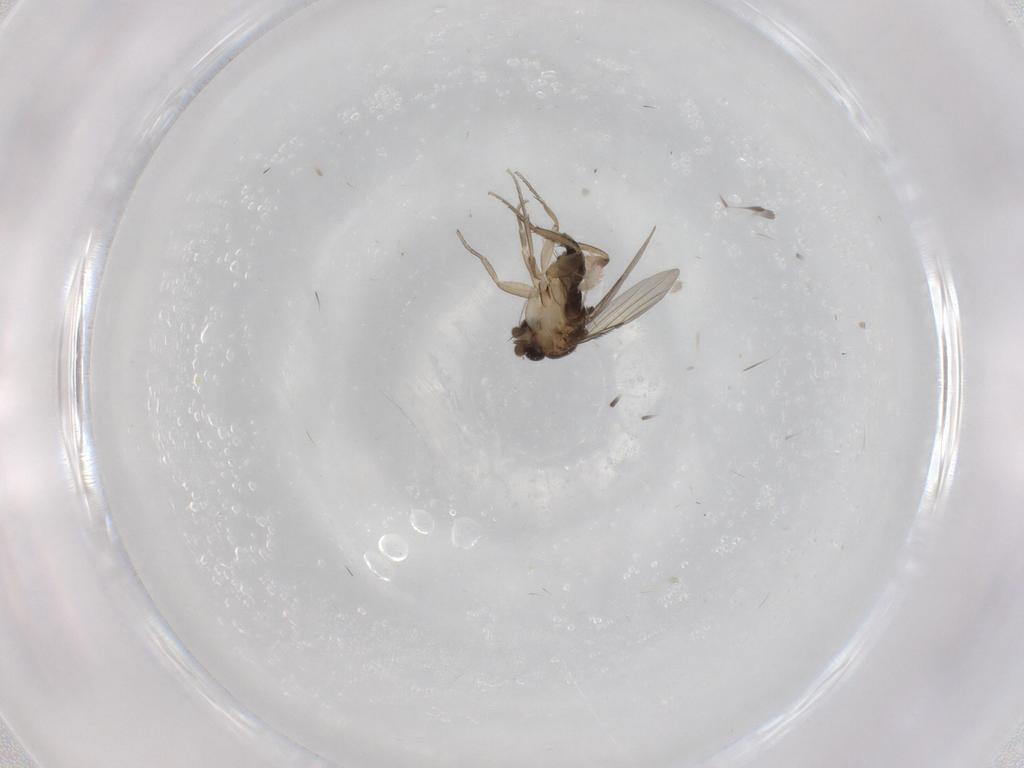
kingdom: Animalia
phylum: Arthropoda
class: Insecta
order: Diptera
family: Phoridae
